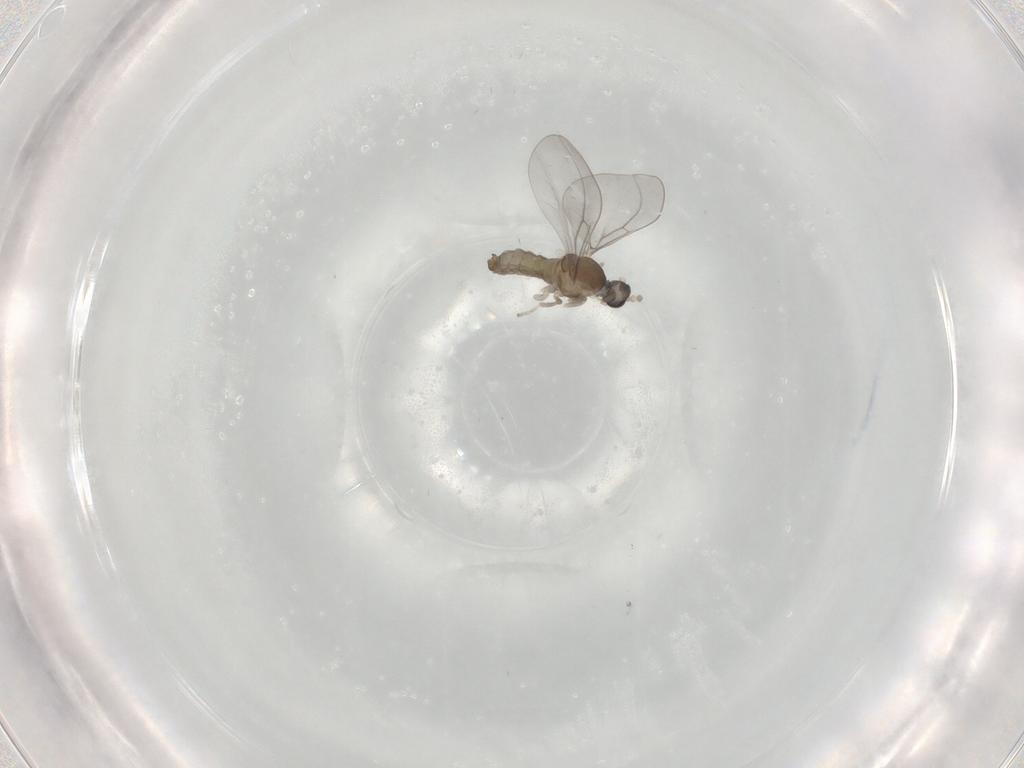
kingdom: Animalia
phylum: Arthropoda
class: Insecta
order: Diptera
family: Cecidomyiidae
